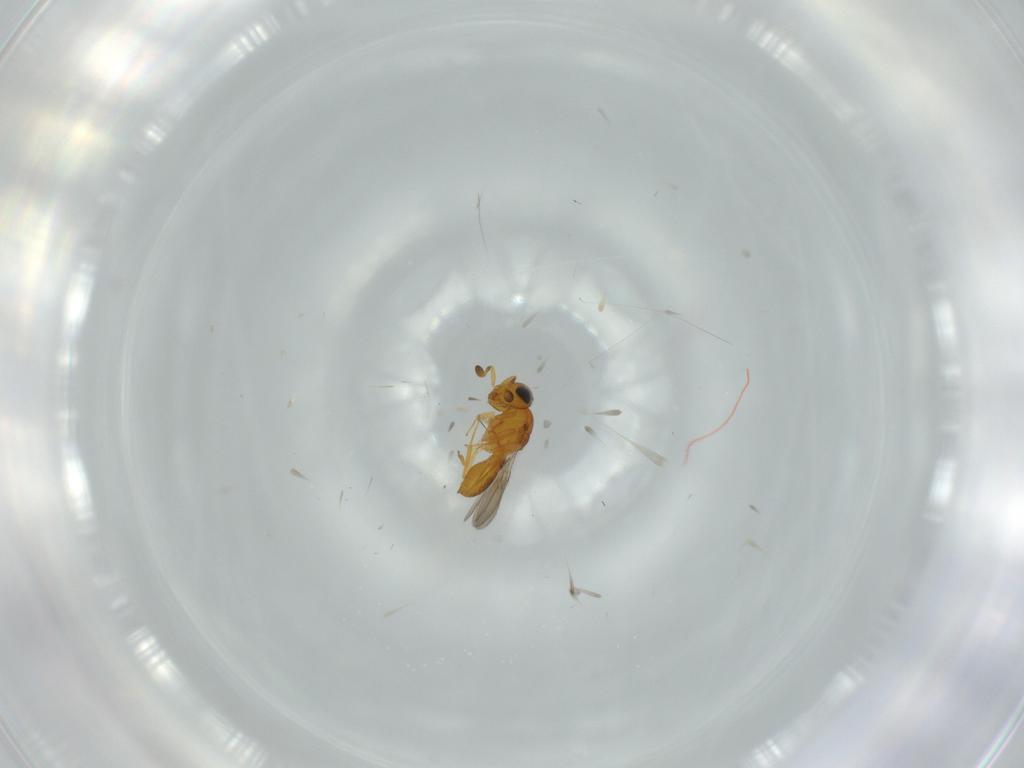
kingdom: Animalia
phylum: Arthropoda
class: Insecta
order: Hymenoptera
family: Scelionidae
